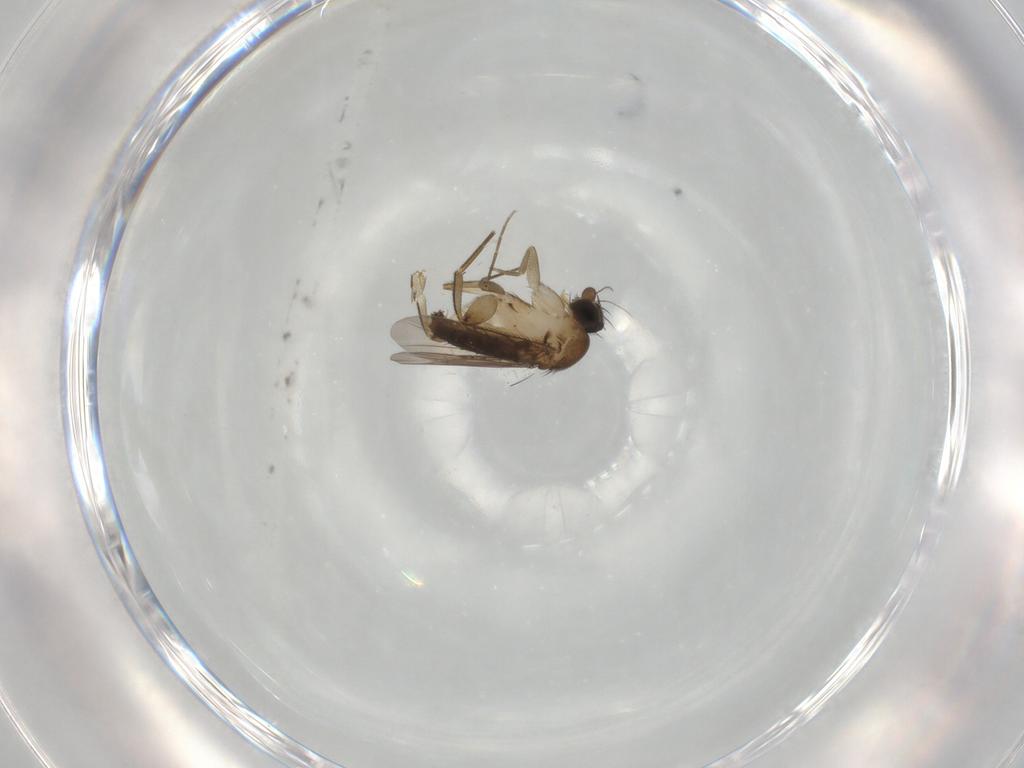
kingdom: Animalia
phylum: Arthropoda
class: Insecta
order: Diptera
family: Phoridae
